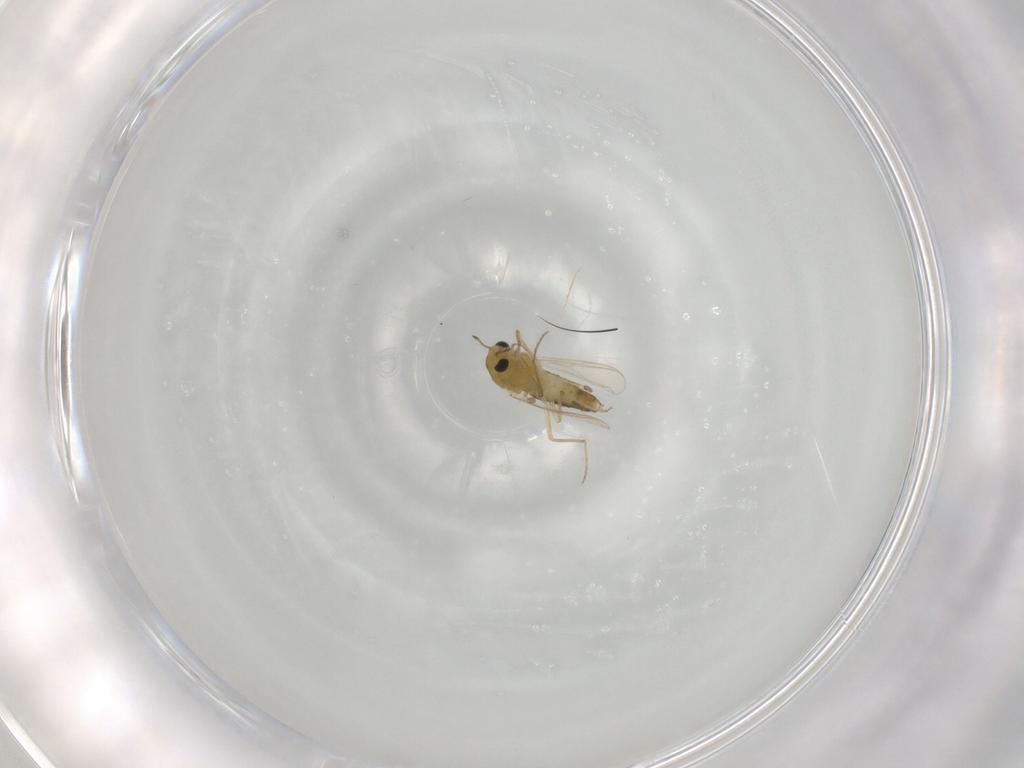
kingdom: Animalia
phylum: Arthropoda
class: Insecta
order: Diptera
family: Chironomidae
